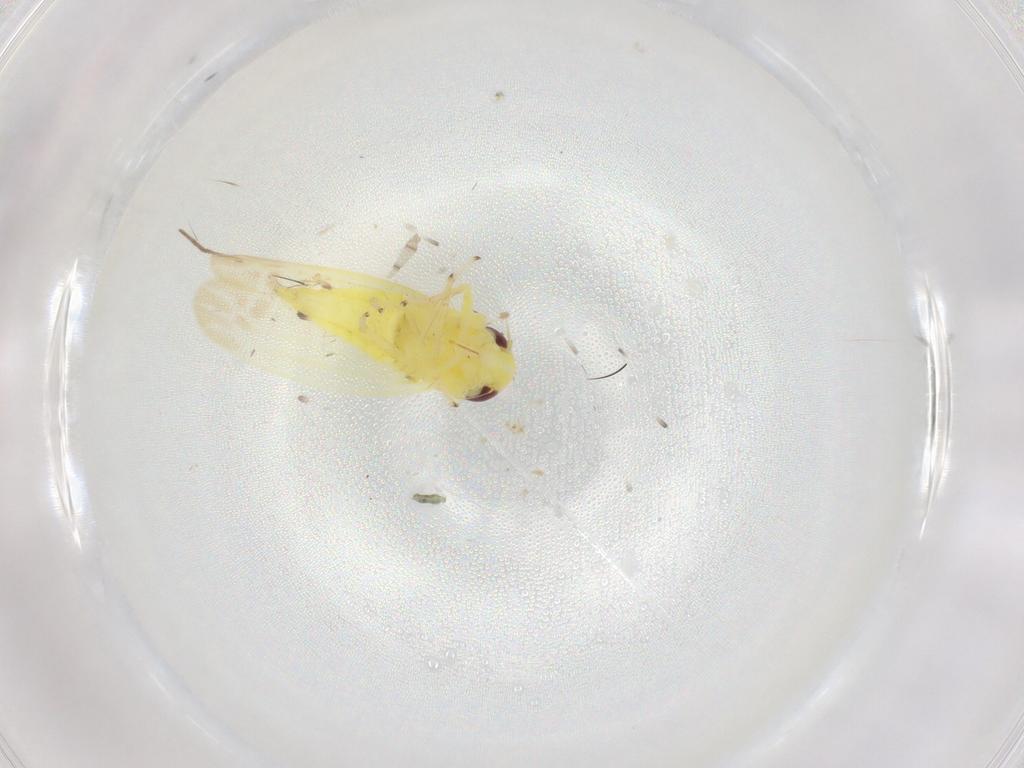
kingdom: Animalia
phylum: Arthropoda
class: Insecta
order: Hemiptera
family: Cicadellidae
